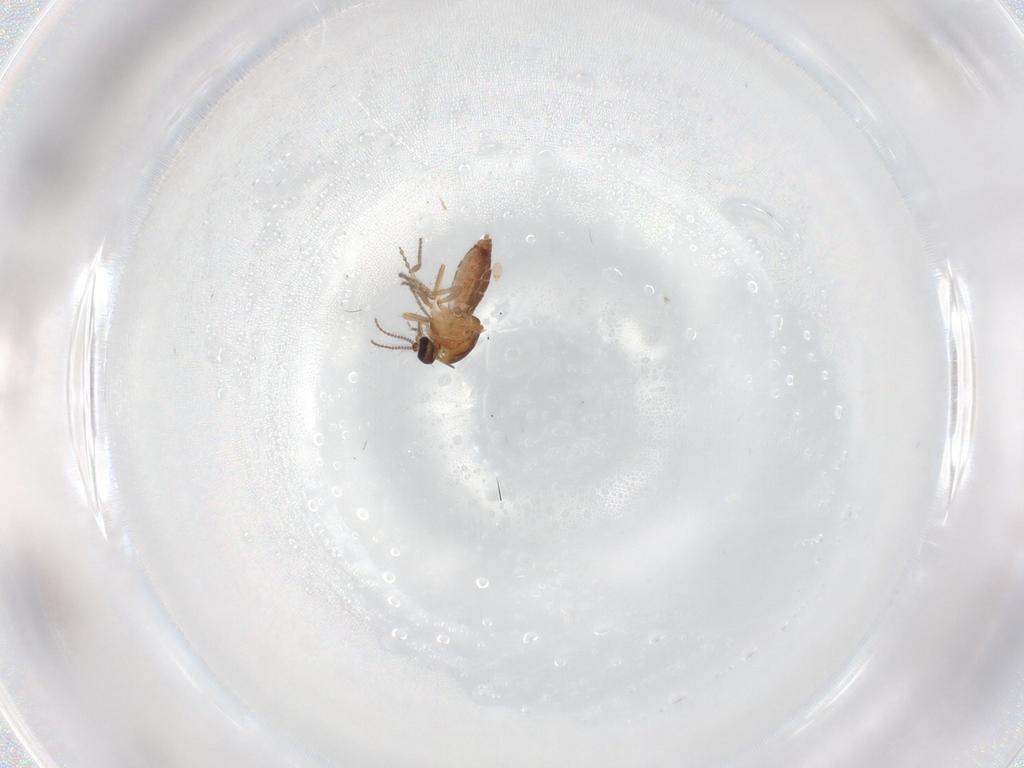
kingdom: Animalia
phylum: Arthropoda
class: Insecta
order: Diptera
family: Ceratopogonidae
